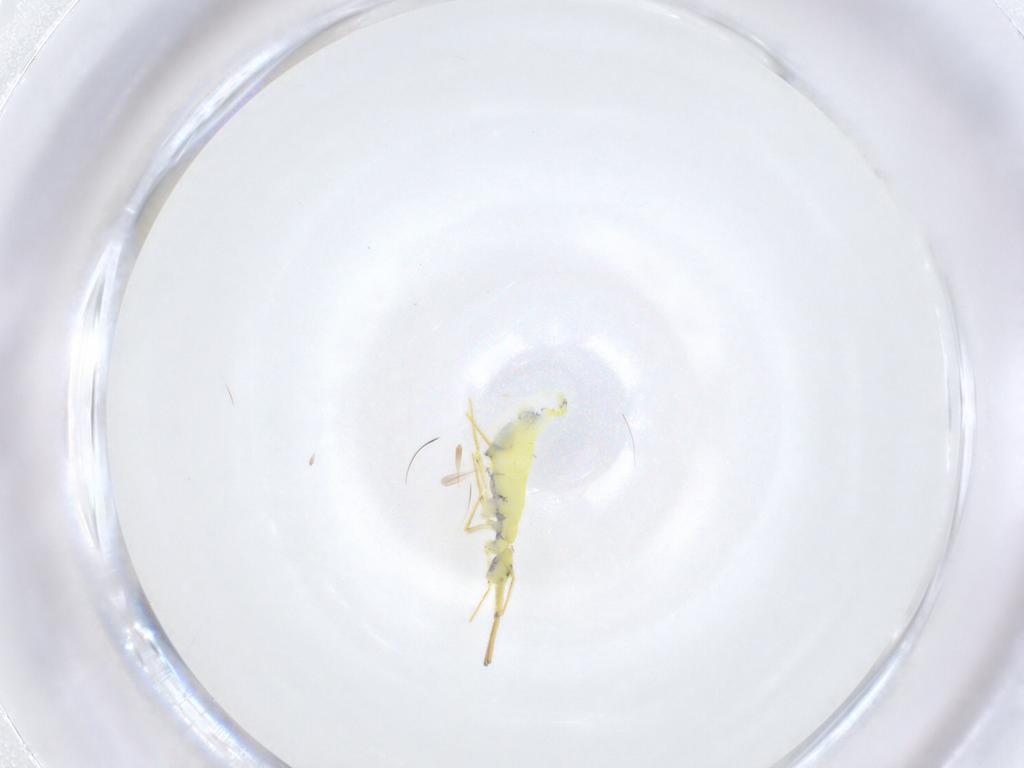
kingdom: Animalia
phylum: Arthropoda
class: Collembola
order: Entomobryomorpha
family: Entomobryidae
